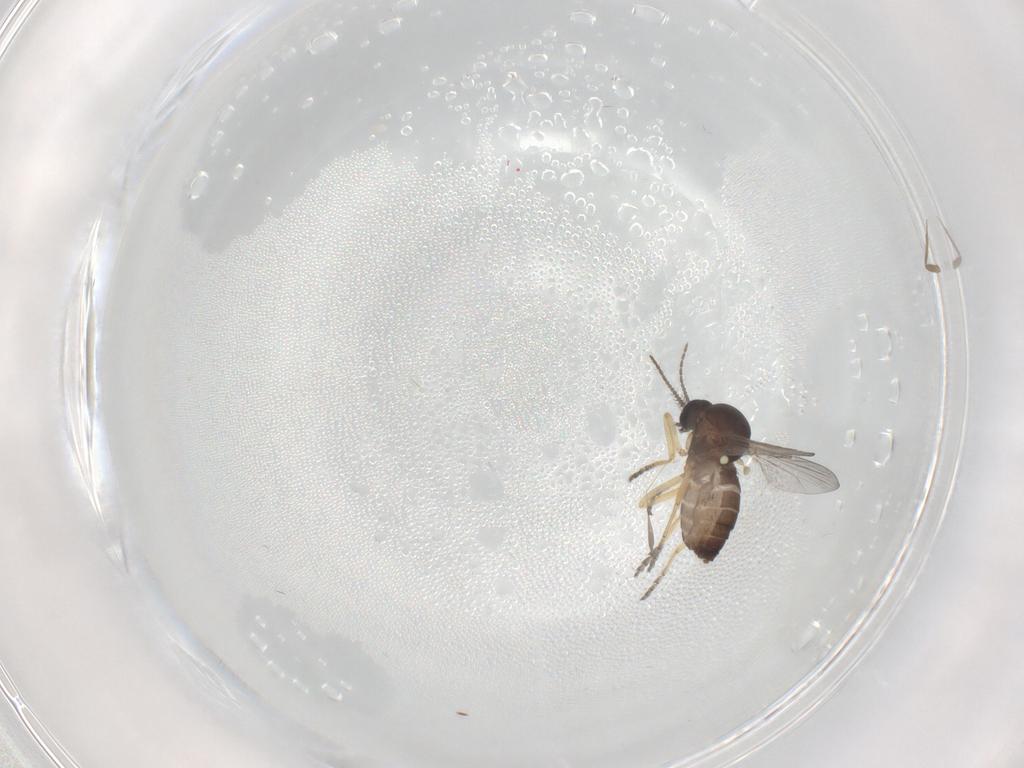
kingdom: Animalia
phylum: Arthropoda
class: Insecta
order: Diptera
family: Ceratopogonidae
